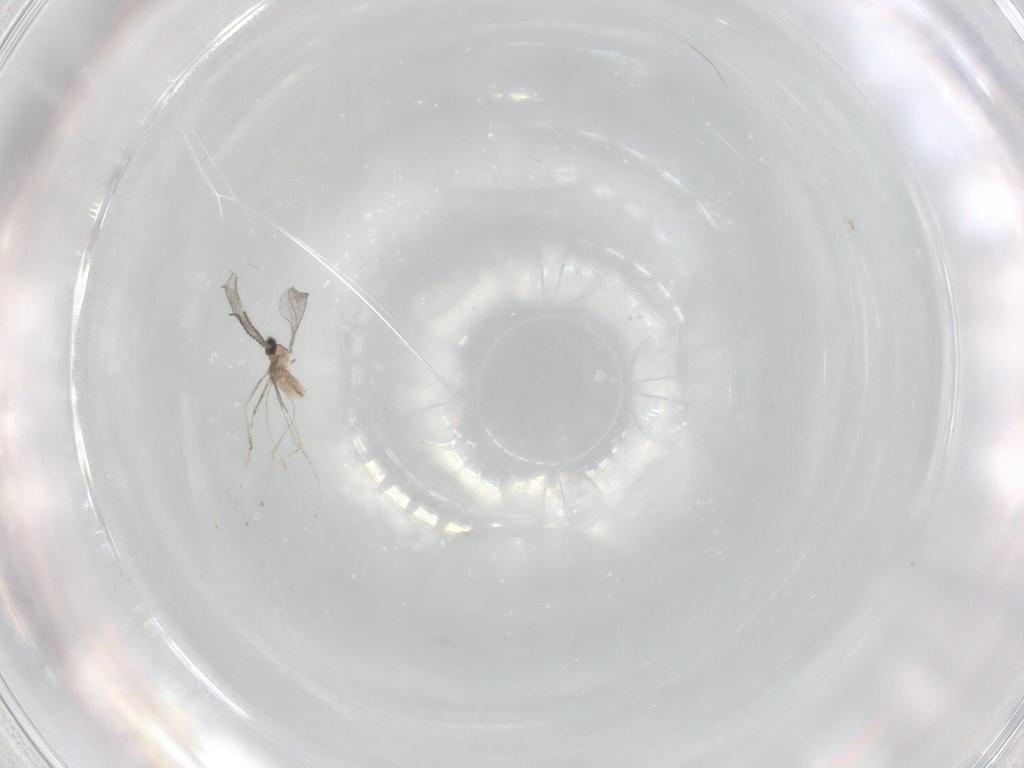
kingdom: Animalia
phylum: Arthropoda
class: Insecta
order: Diptera
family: Cecidomyiidae
